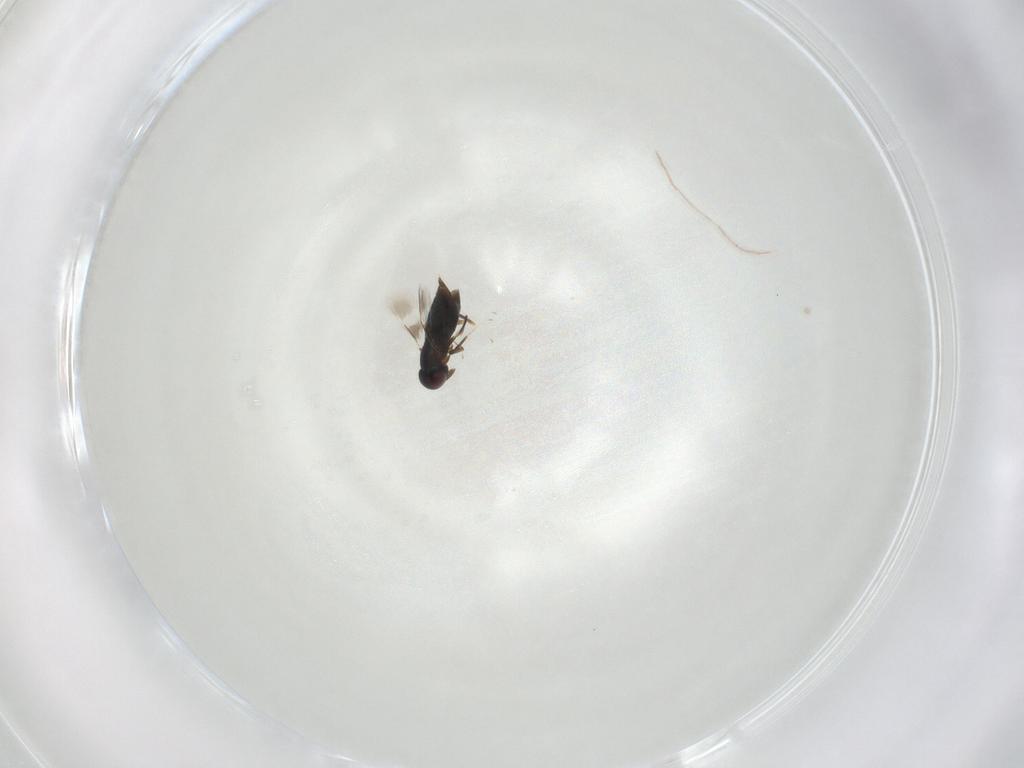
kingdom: Animalia
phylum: Arthropoda
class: Insecta
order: Hymenoptera
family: Signiphoridae
